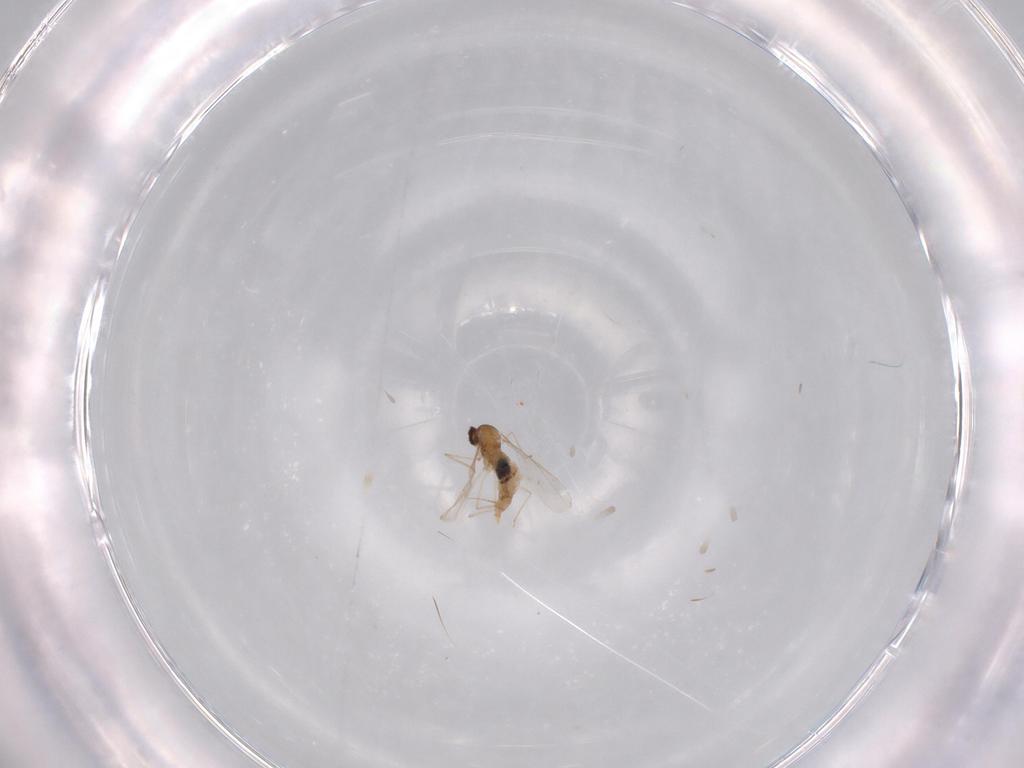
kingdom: Animalia
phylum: Arthropoda
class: Insecta
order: Diptera
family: Cecidomyiidae
